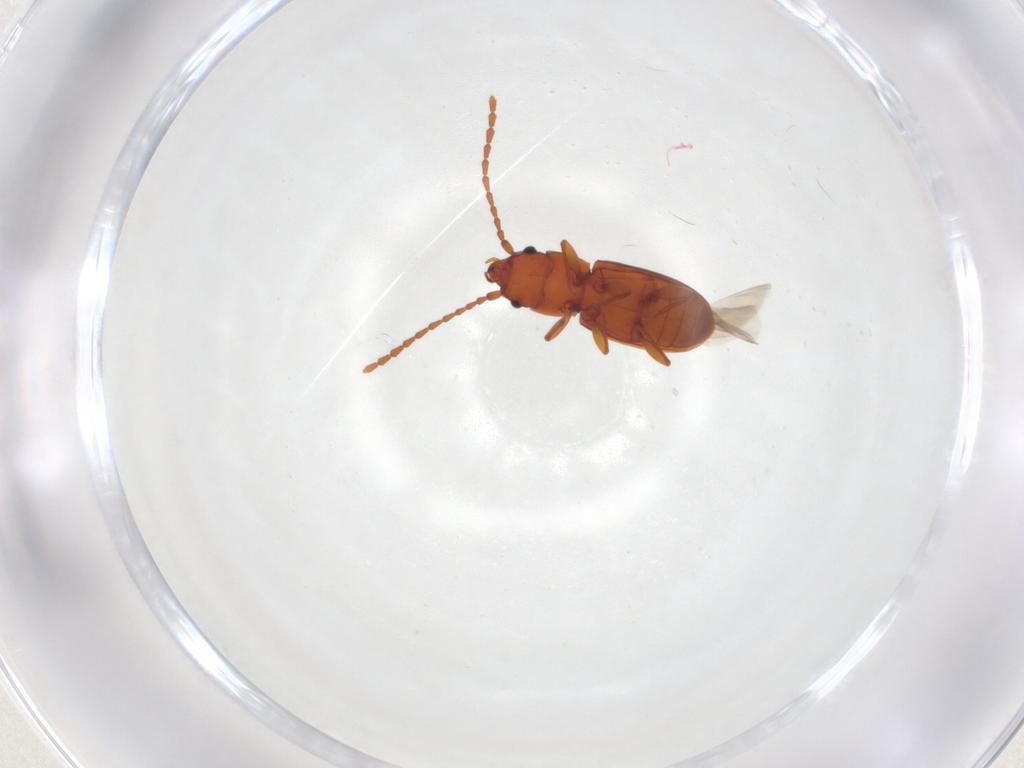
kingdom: Animalia
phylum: Arthropoda
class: Insecta
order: Coleoptera
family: Laemophloeidae
